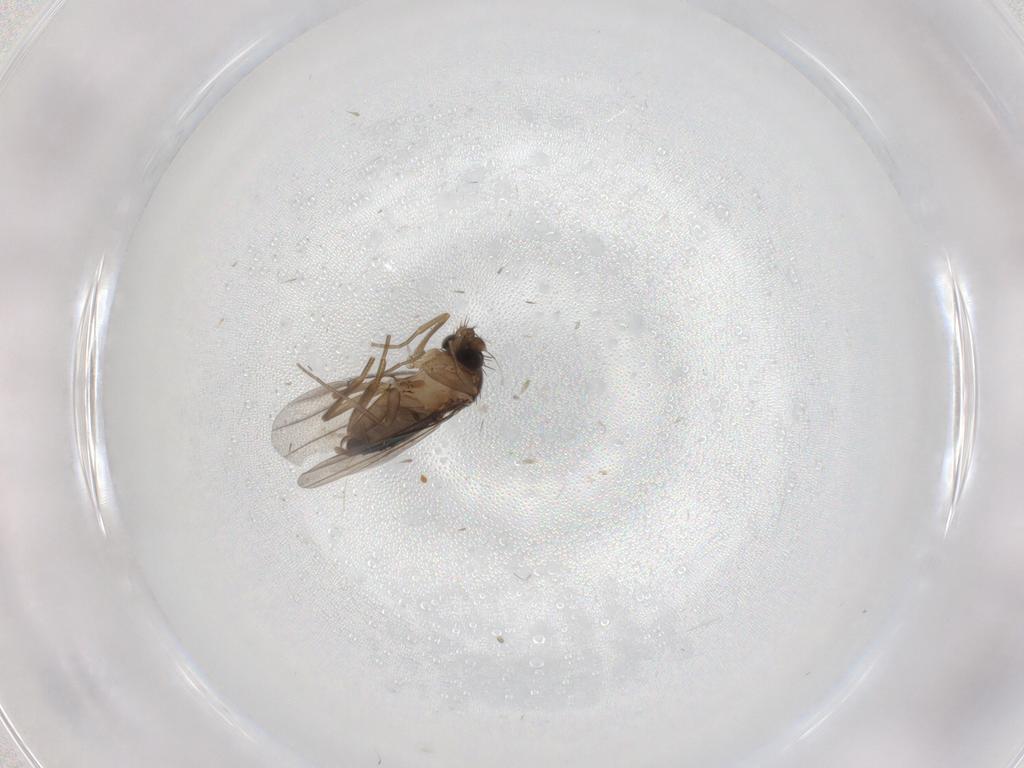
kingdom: Animalia
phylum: Arthropoda
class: Insecta
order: Diptera
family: Phoridae
